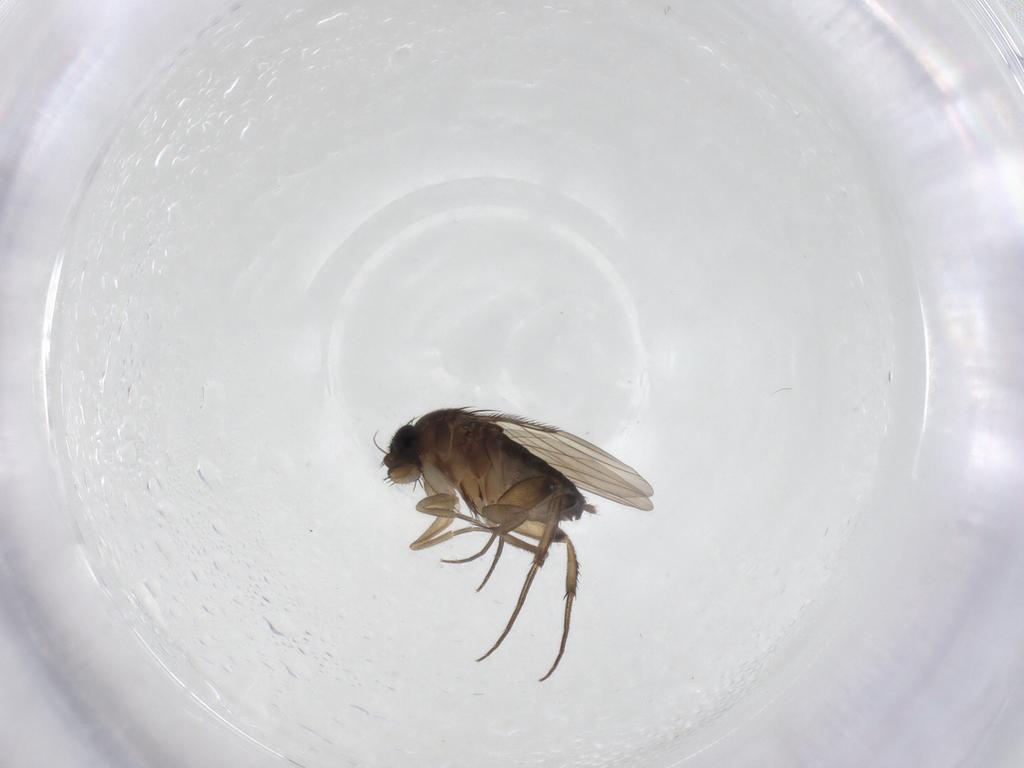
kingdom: Animalia
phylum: Arthropoda
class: Insecta
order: Diptera
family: Phoridae
